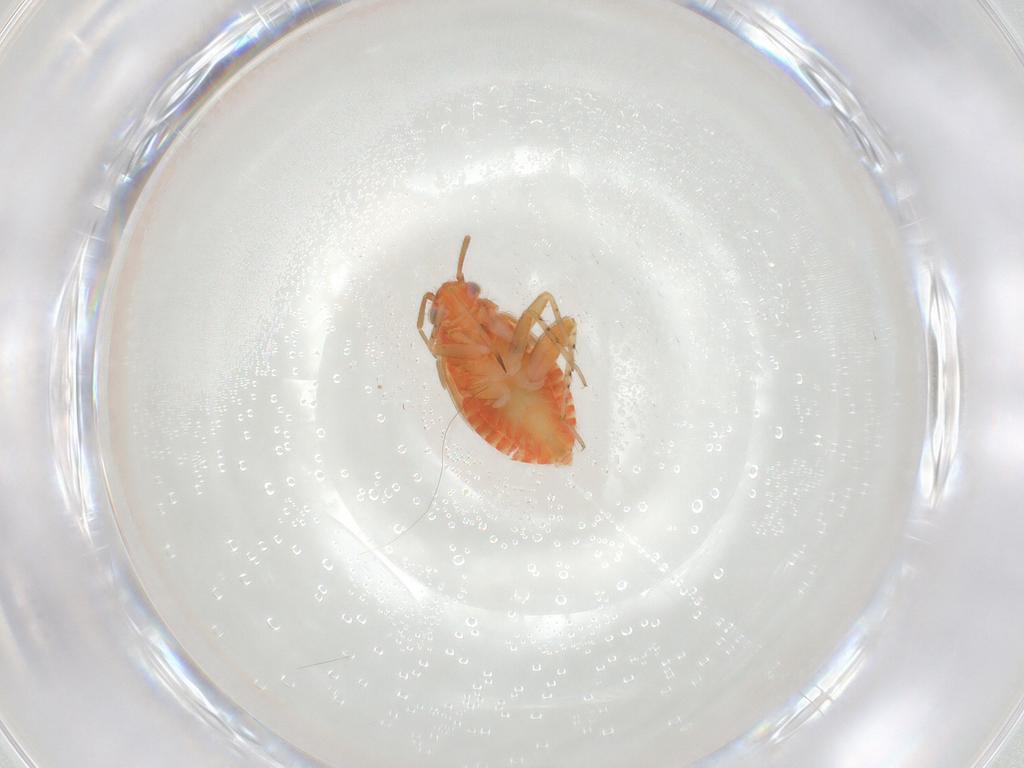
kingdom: Animalia
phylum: Arthropoda
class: Insecta
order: Hemiptera
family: Miridae
